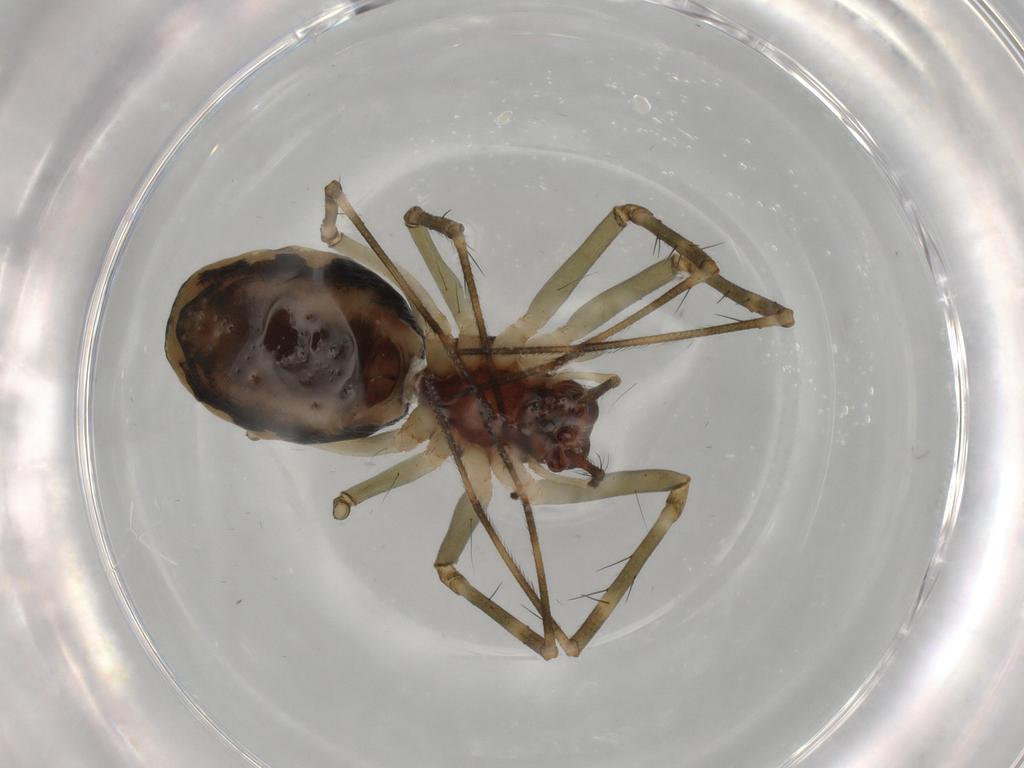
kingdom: Animalia
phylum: Arthropoda
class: Arachnida
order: Araneae
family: Linyphiidae
